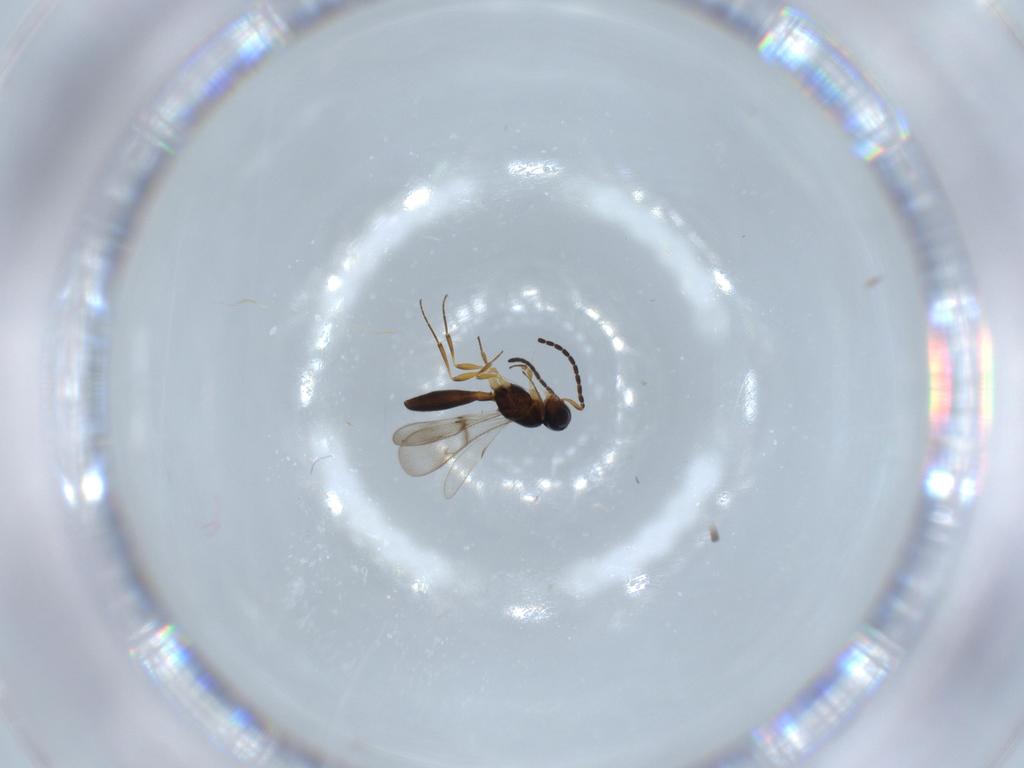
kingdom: Animalia
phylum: Arthropoda
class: Insecta
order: Hymenoptera
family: Scelionidae
